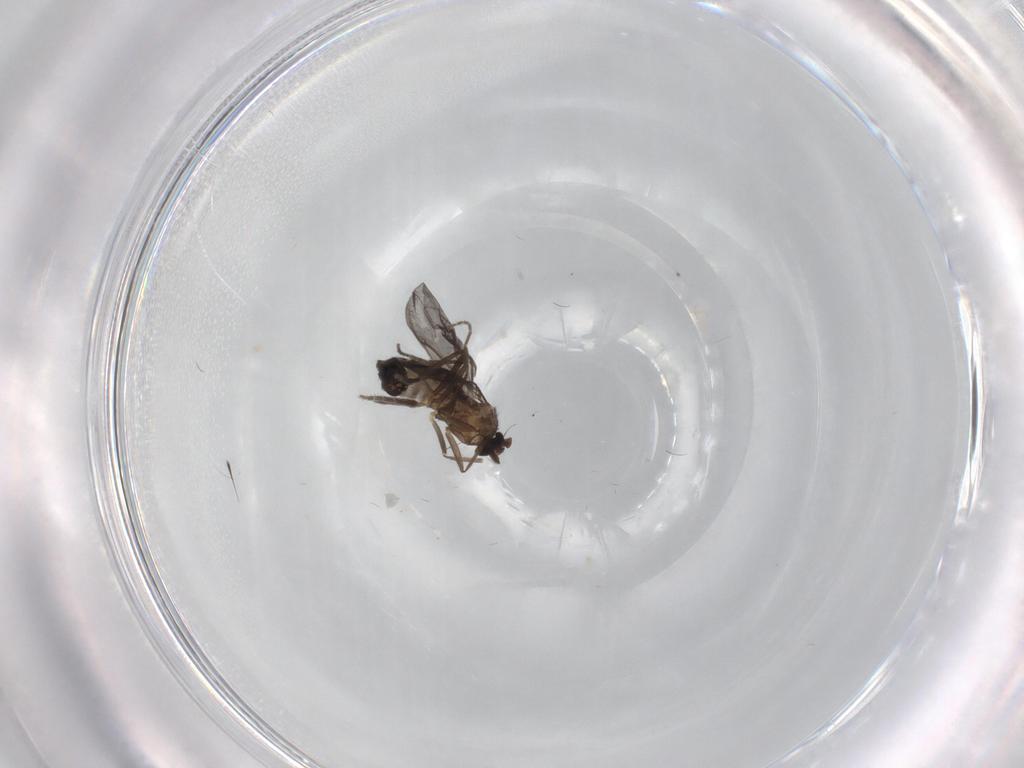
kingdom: Animalia
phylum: Arthropoda
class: Insecta
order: Diptera
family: Phoridae
